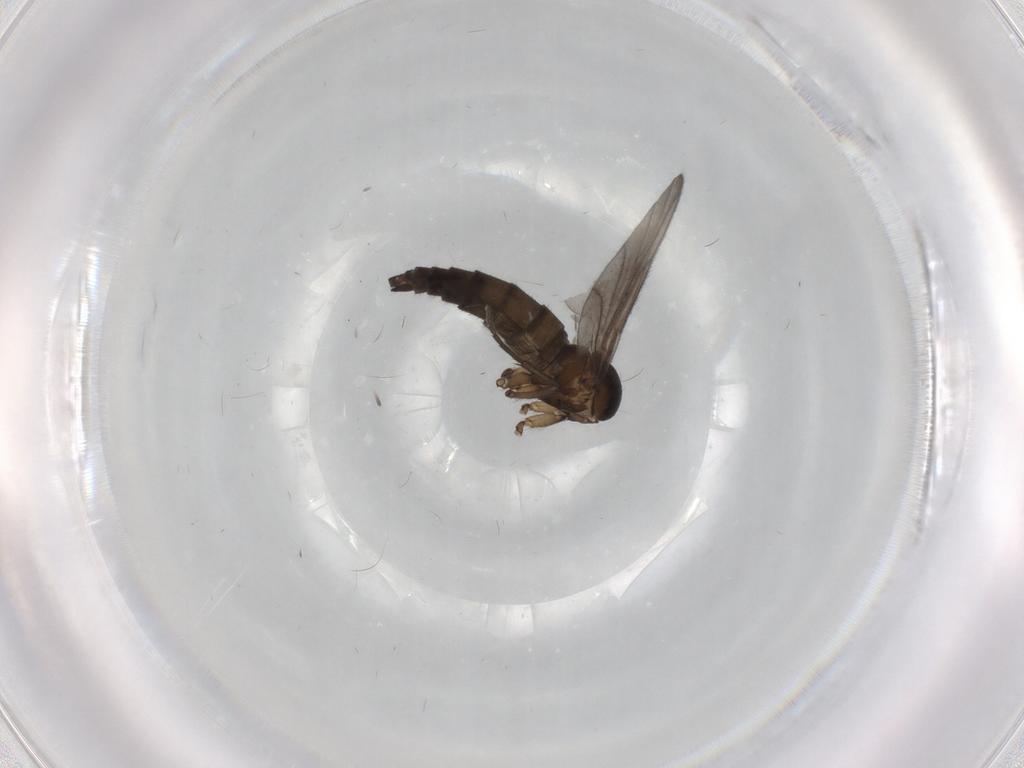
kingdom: Animalia
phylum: Arthropoda
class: Insecta
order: Diptera
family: Sciaridae
